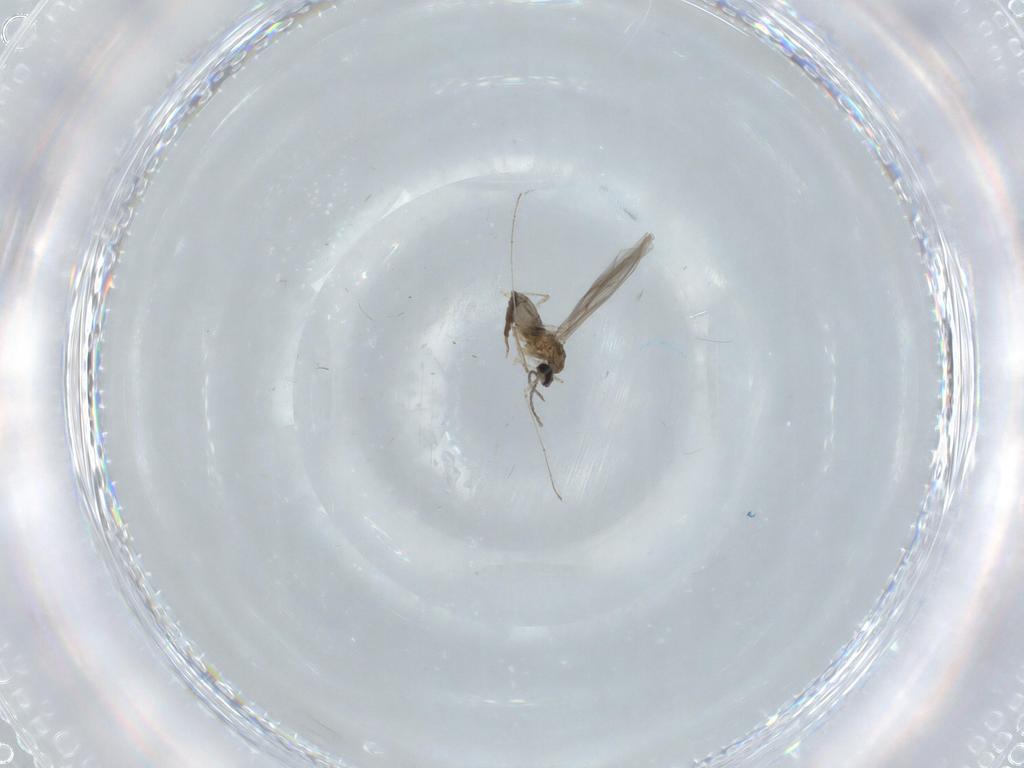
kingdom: Animalia
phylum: Arthropoda
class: Insecta
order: Diptera
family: Cecidomyiidae
